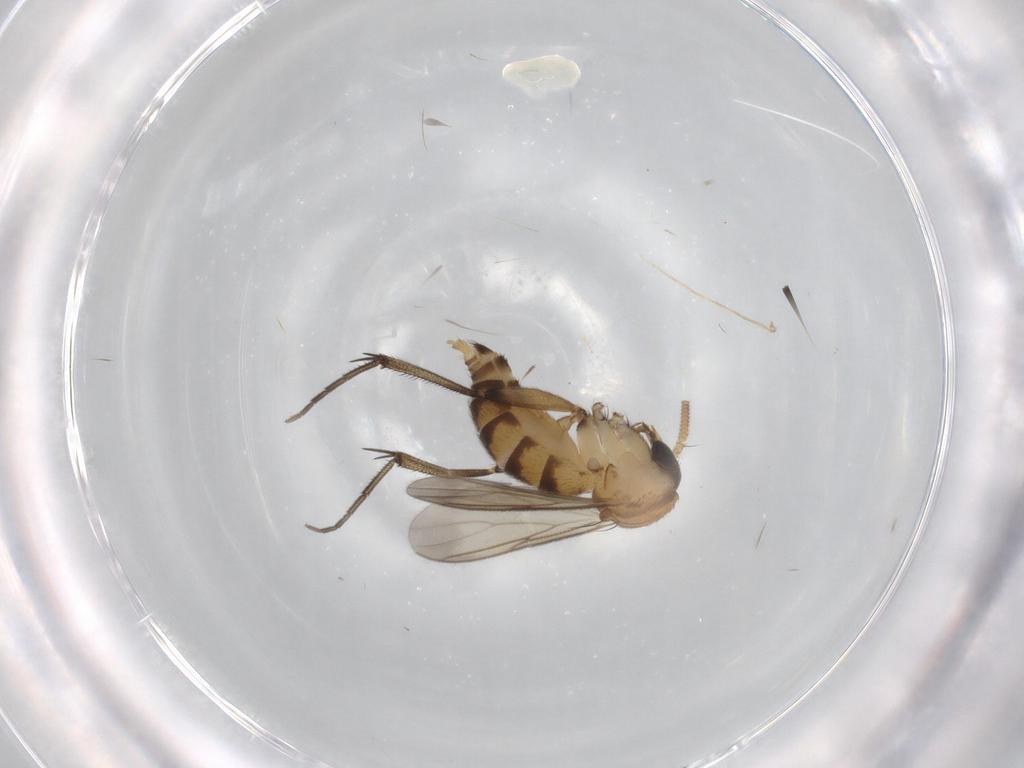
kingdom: Animalia
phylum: Arthropoda
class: Insecta
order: Diptera
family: Mycetophilidae
